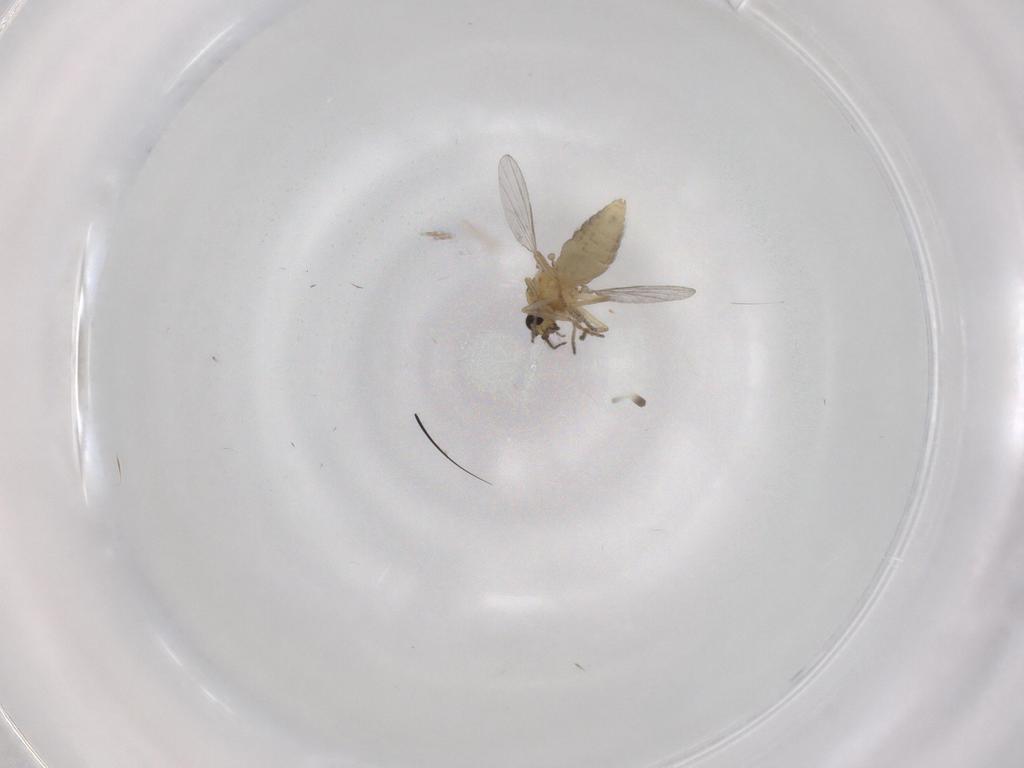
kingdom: Animalia
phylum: Arthropoda
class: Insecta
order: Diptera
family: Ceratopogonidae
